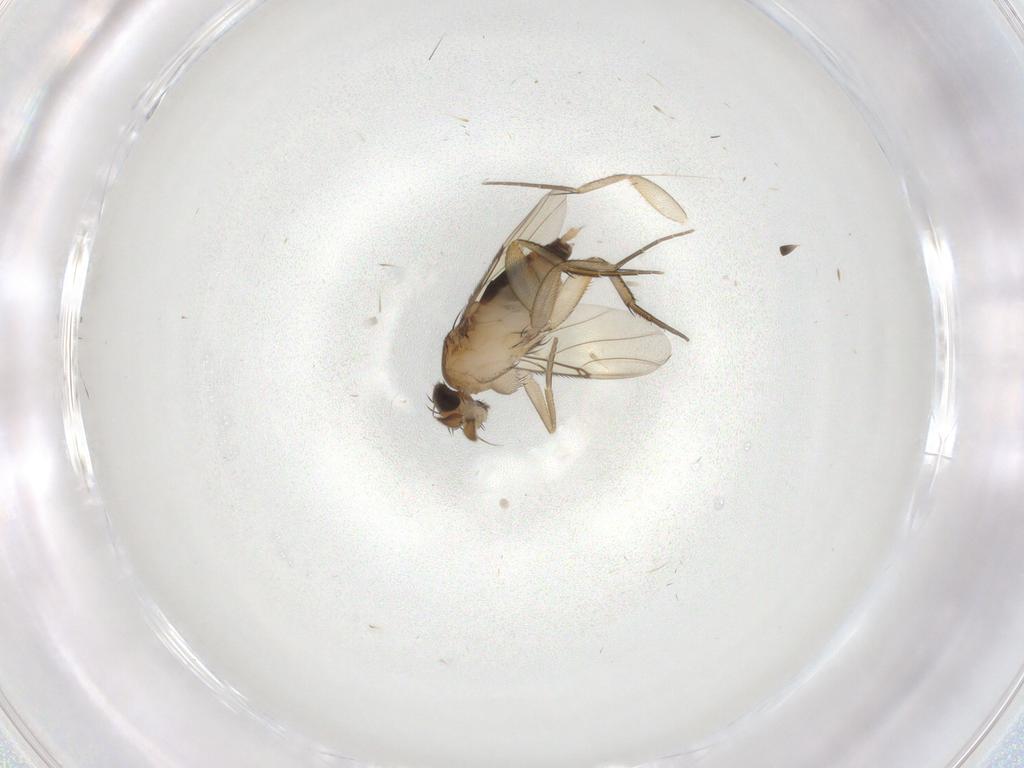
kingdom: Animalia
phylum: Arthropoda
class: Insecta
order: Diptera
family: Phoridae
